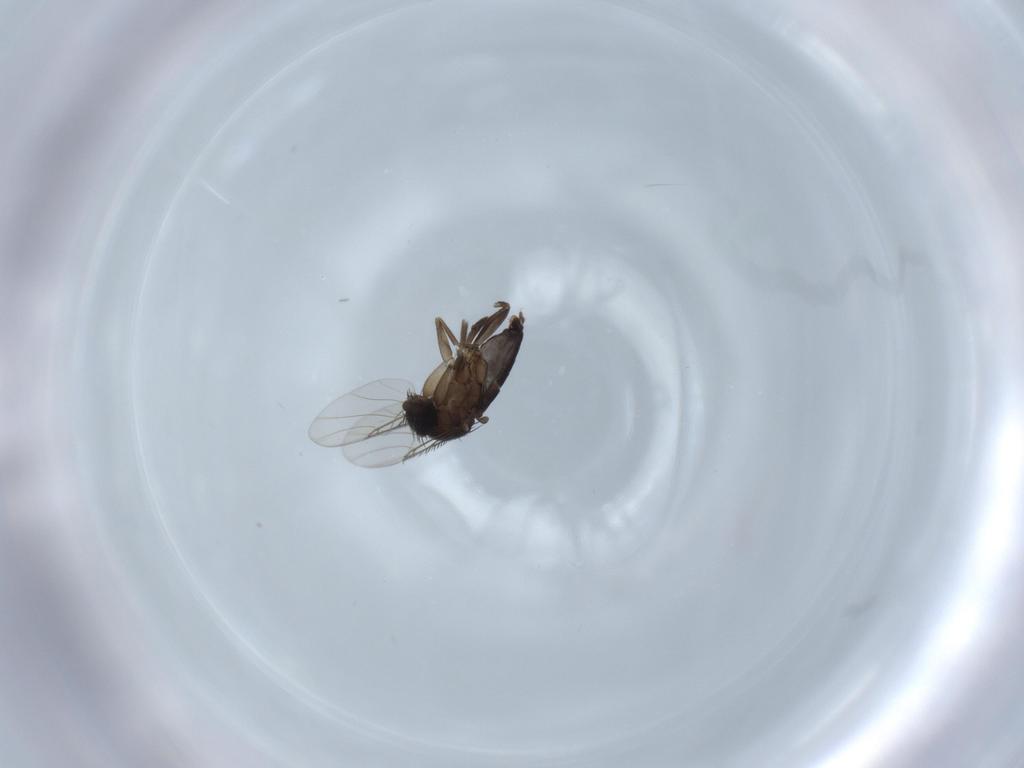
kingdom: Animalia
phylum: Arthropoda
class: Insecta
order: Diptera
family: Phoridae
